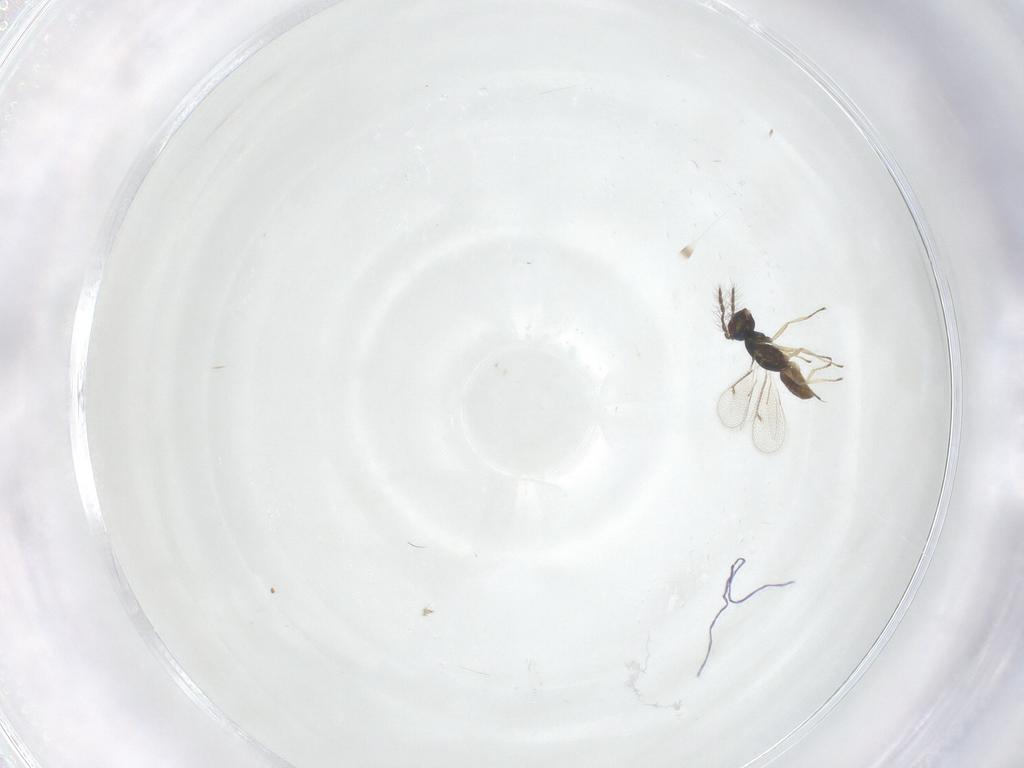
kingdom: Animalia
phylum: Arthropoda
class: Insecta
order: Hymenoptera
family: Eulophidae
